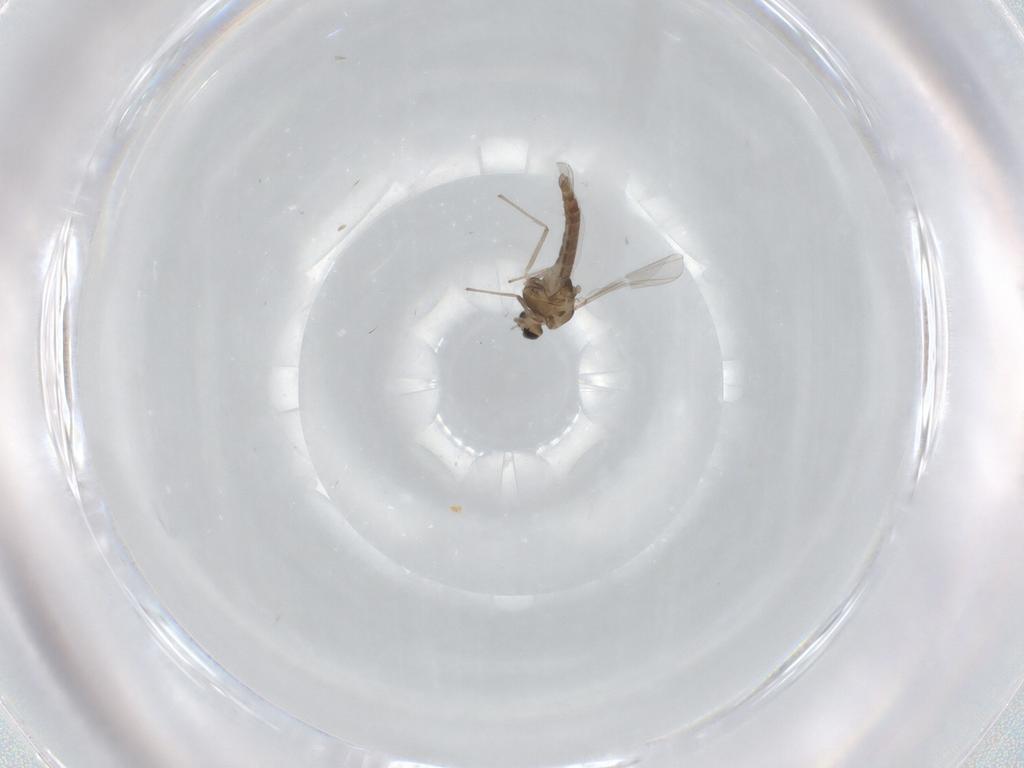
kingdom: Animalia
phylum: Arthropoda
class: Insecta
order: Diptera
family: Chironomidae
